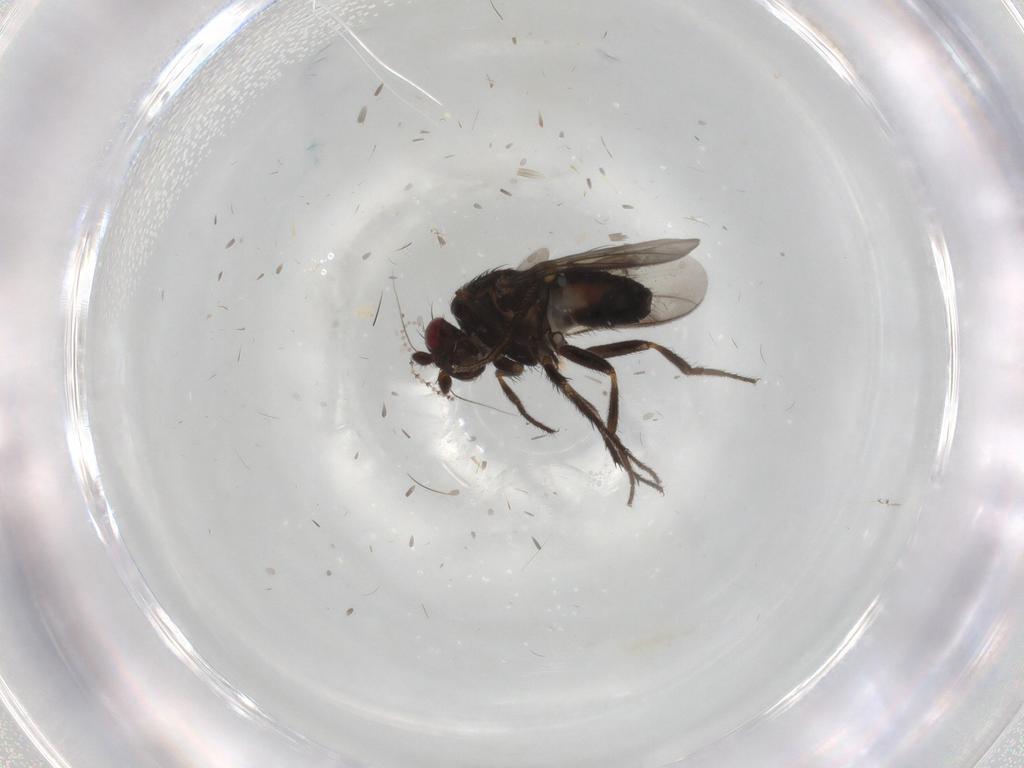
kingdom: Animalia
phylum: Arthropoda
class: Insecta
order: Diptera
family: Sphaeroceridae
